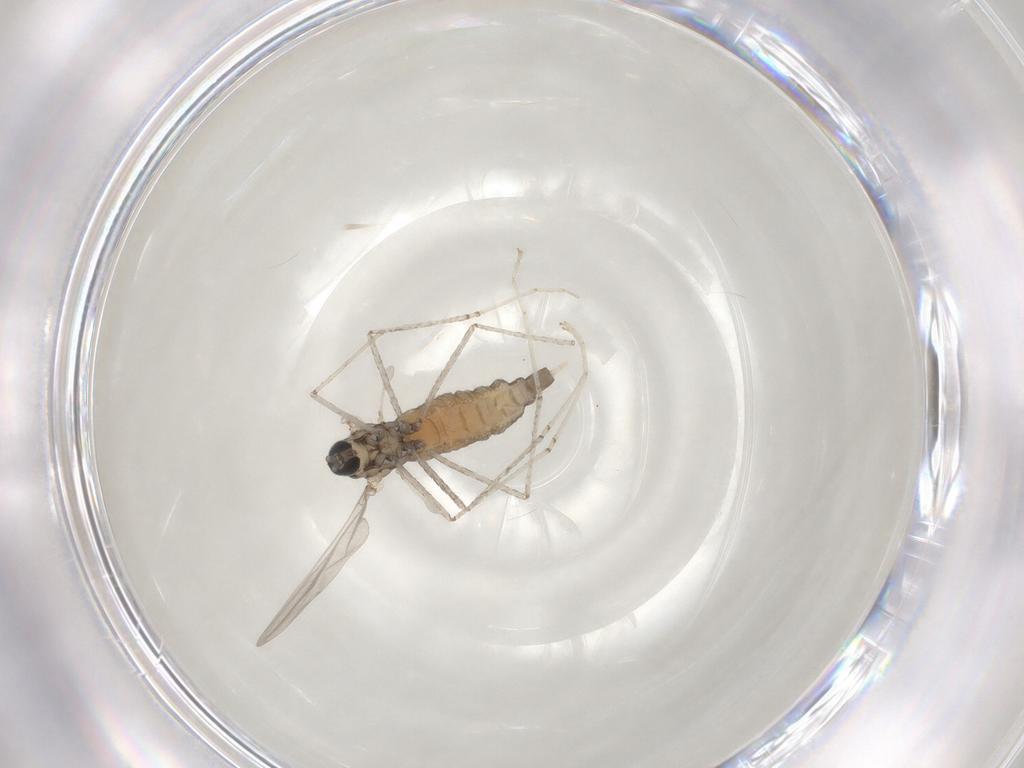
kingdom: Animalia
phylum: Arthropoda
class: Insecta
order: Diptera
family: Cecidomyiidae
